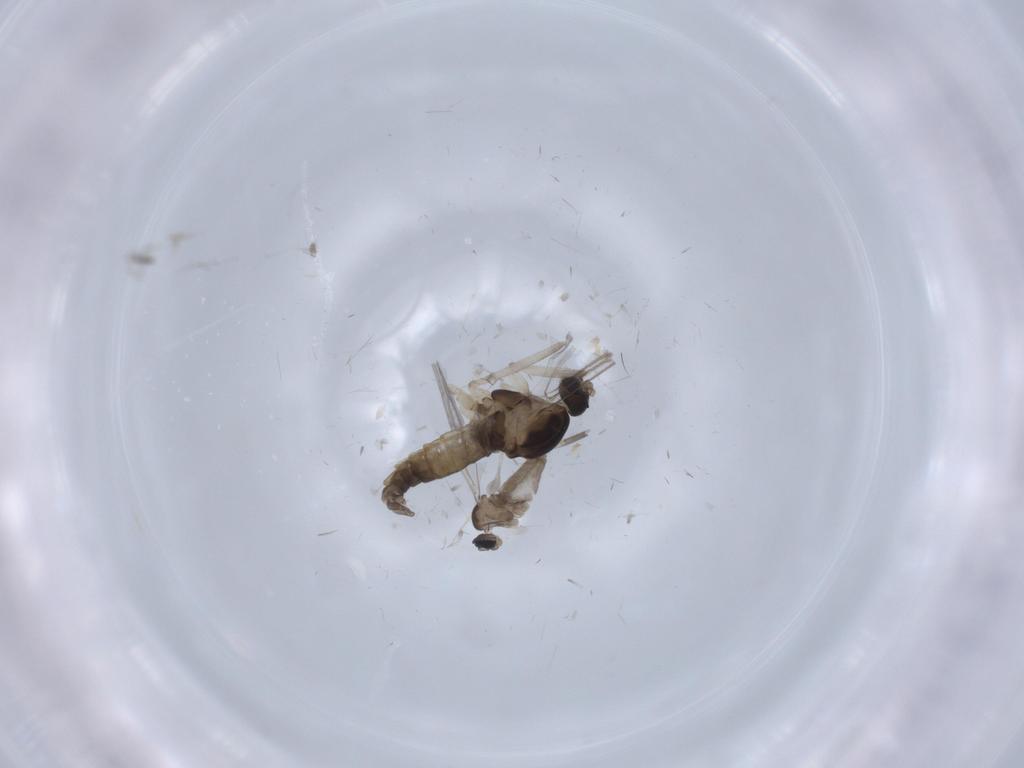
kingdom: Animalia
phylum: Arthropoda
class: Insecta
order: Diptera
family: Cecidomyiidae
